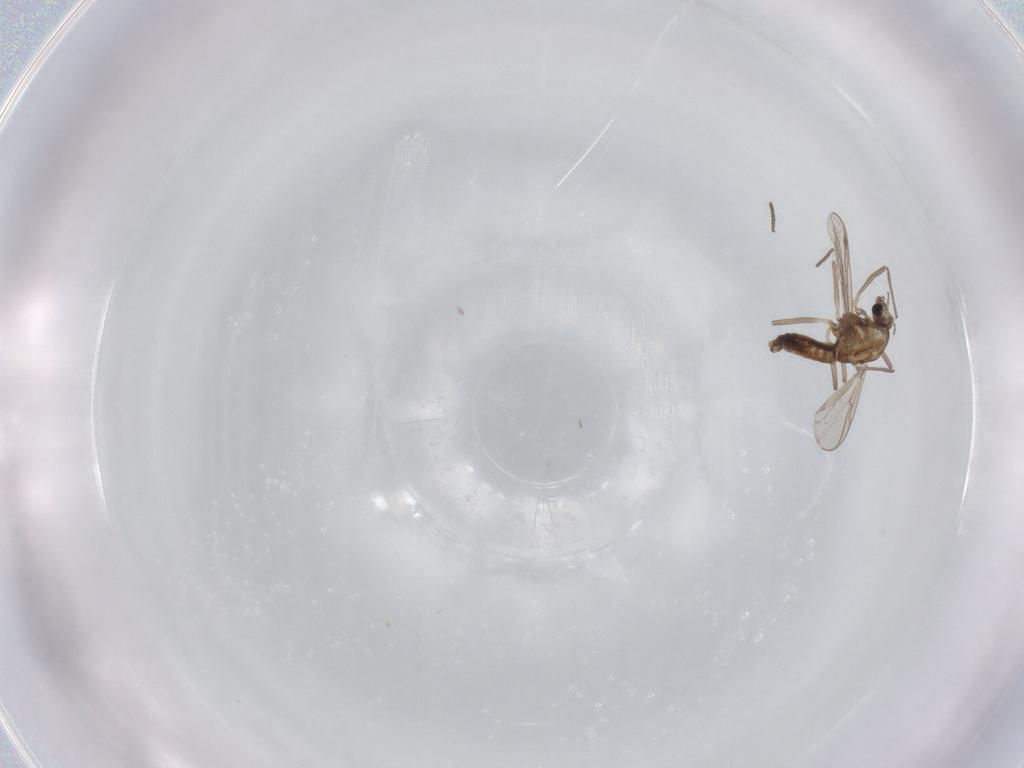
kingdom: Animalia
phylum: Arthropoda
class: Insecta
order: Diptera
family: Chironomidae
